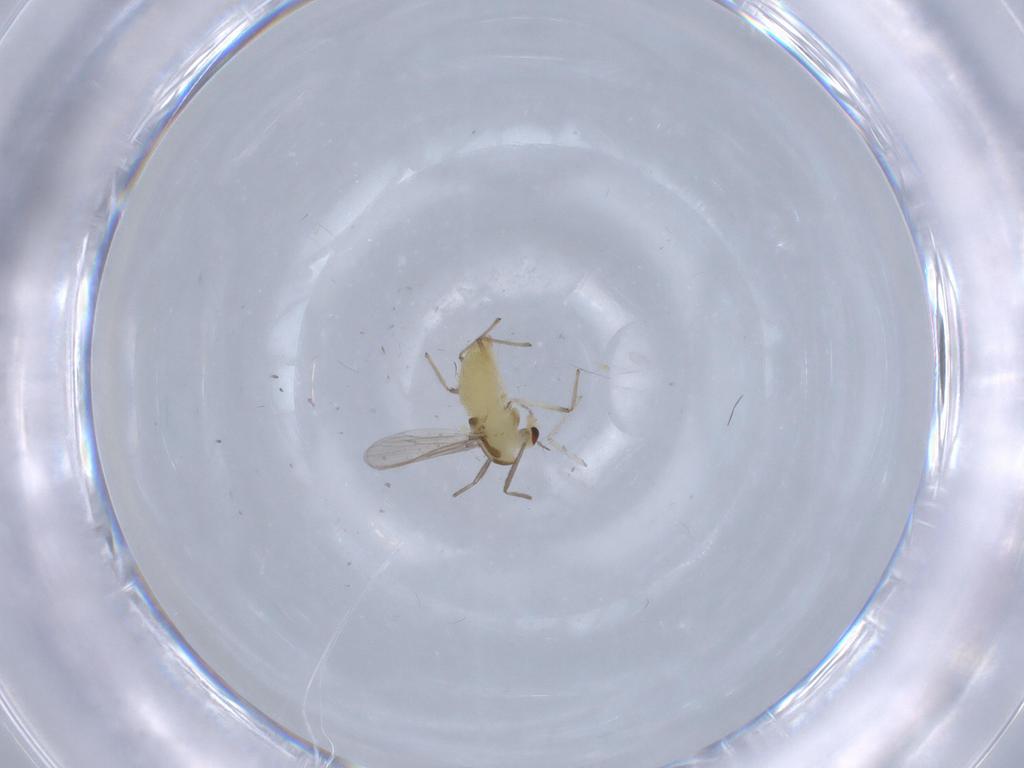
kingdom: Animalia
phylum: Arthropoda
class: Insecta
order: Diptera
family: Chironomidae
